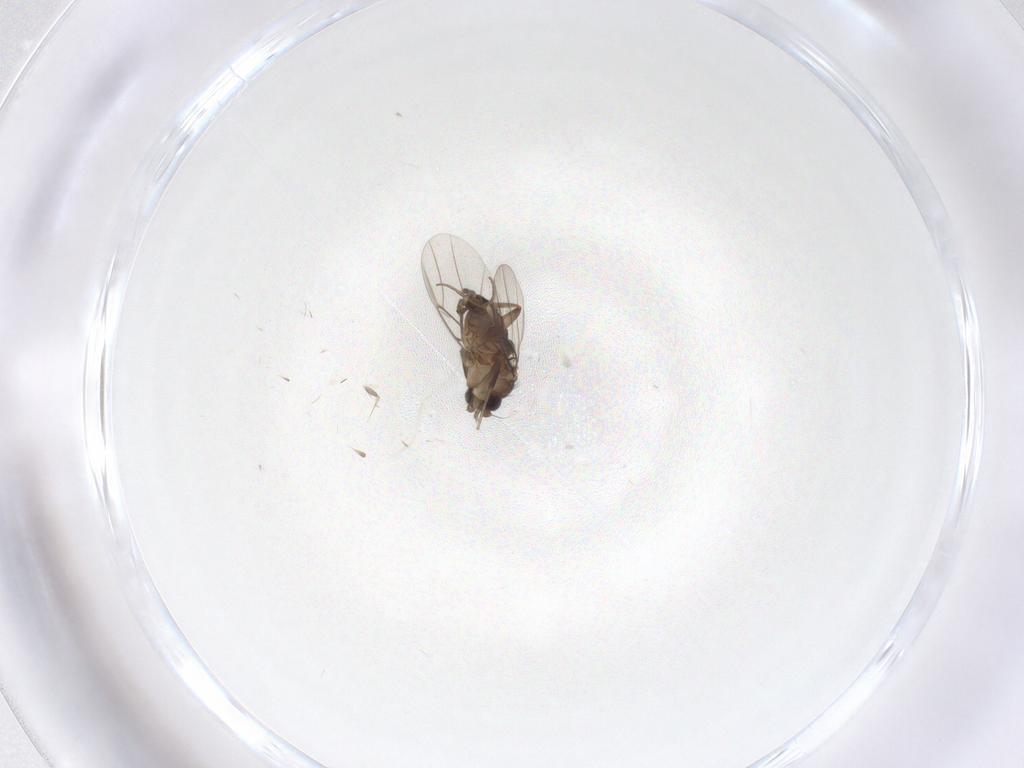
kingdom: Animalia
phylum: Arthropoda
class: Insecta
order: Diptera
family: Phoridae
